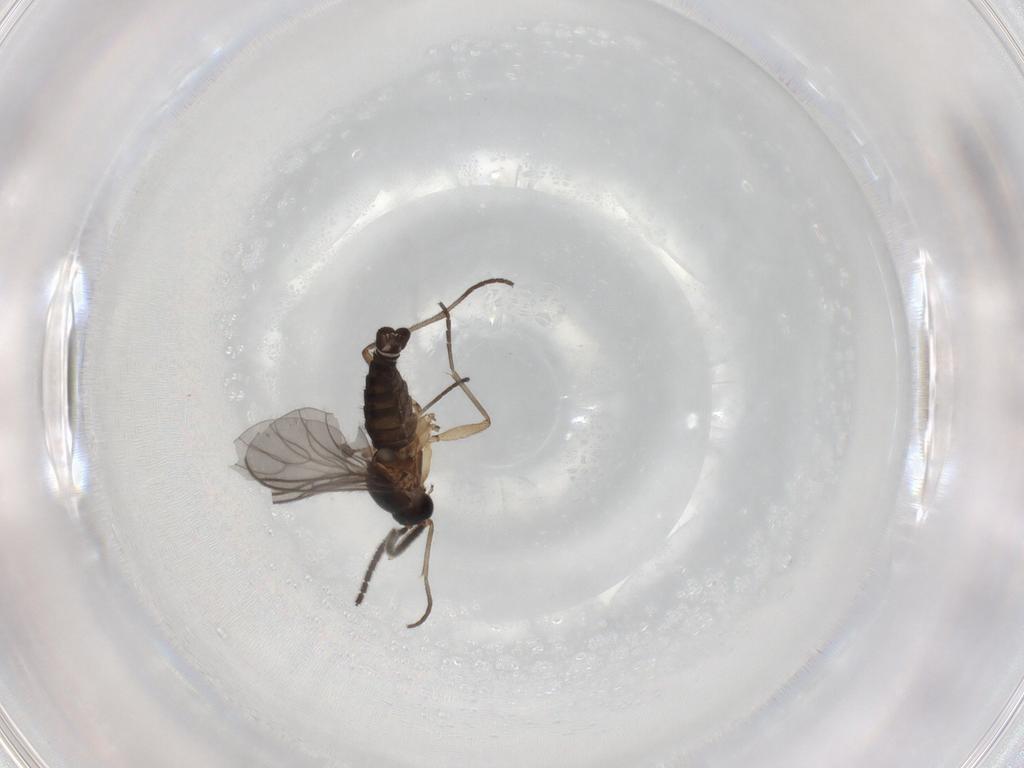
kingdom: Animalia
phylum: Arthropoda
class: Insecta
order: Diptera
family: Sciaridae
